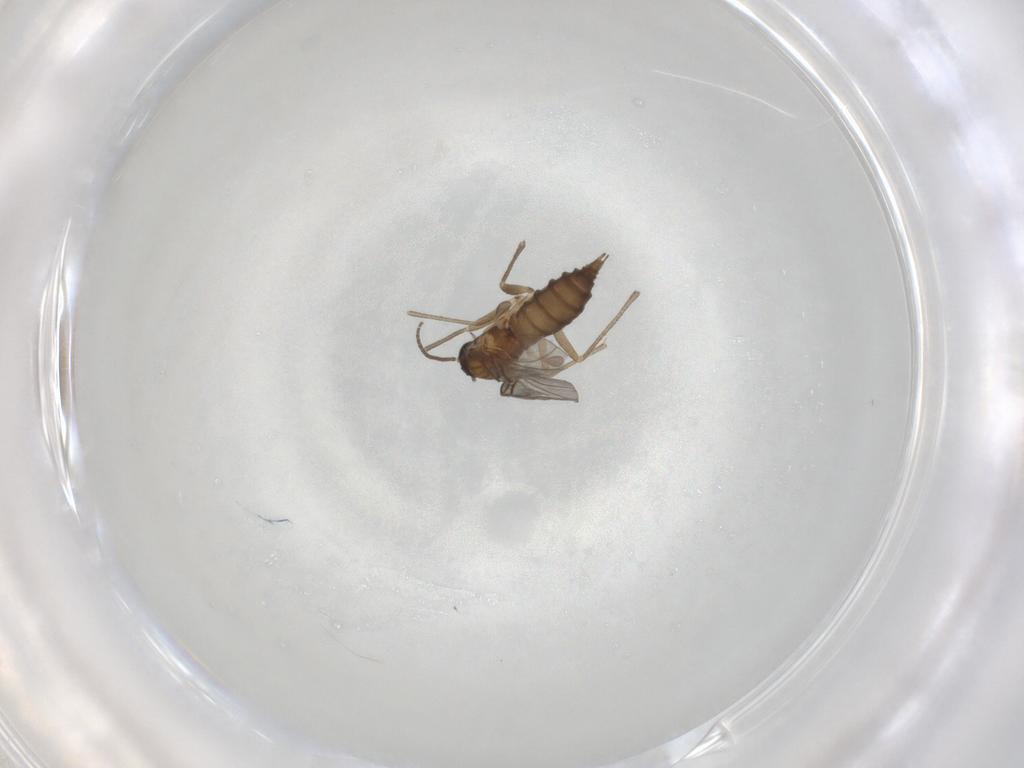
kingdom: Animalia
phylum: Arthropoda
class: Insecta
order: Diptera
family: Sciaridae
